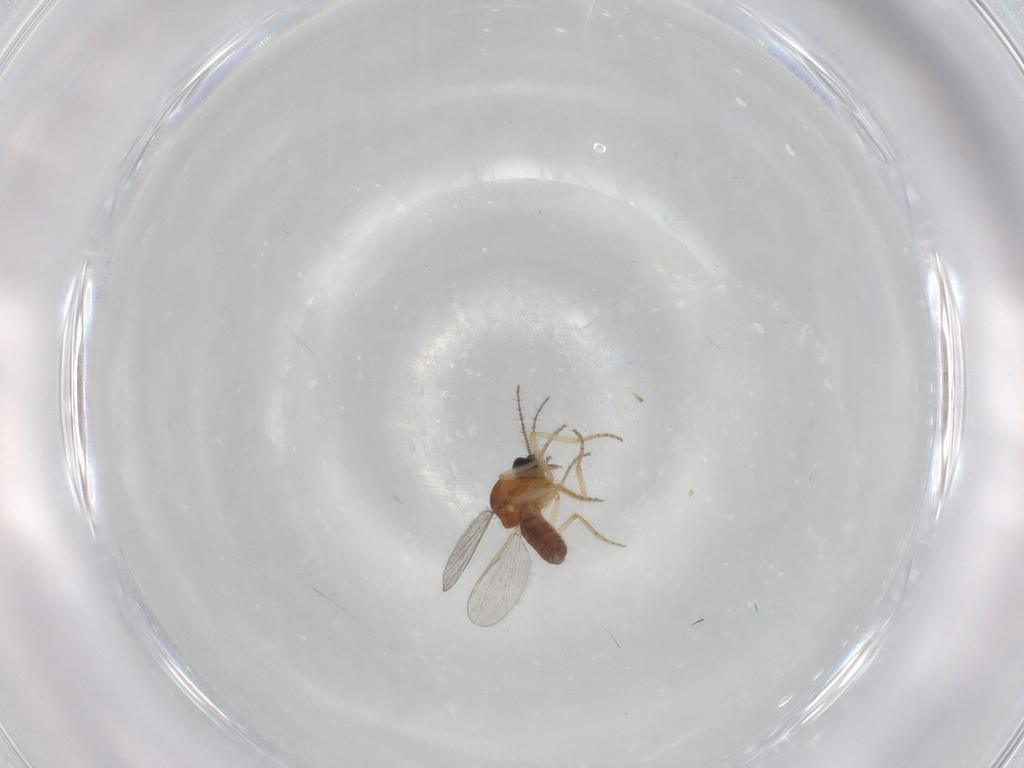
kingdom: Animalia
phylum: Arthropoda
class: Insecta
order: Diptera
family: Ceratopogonidae
